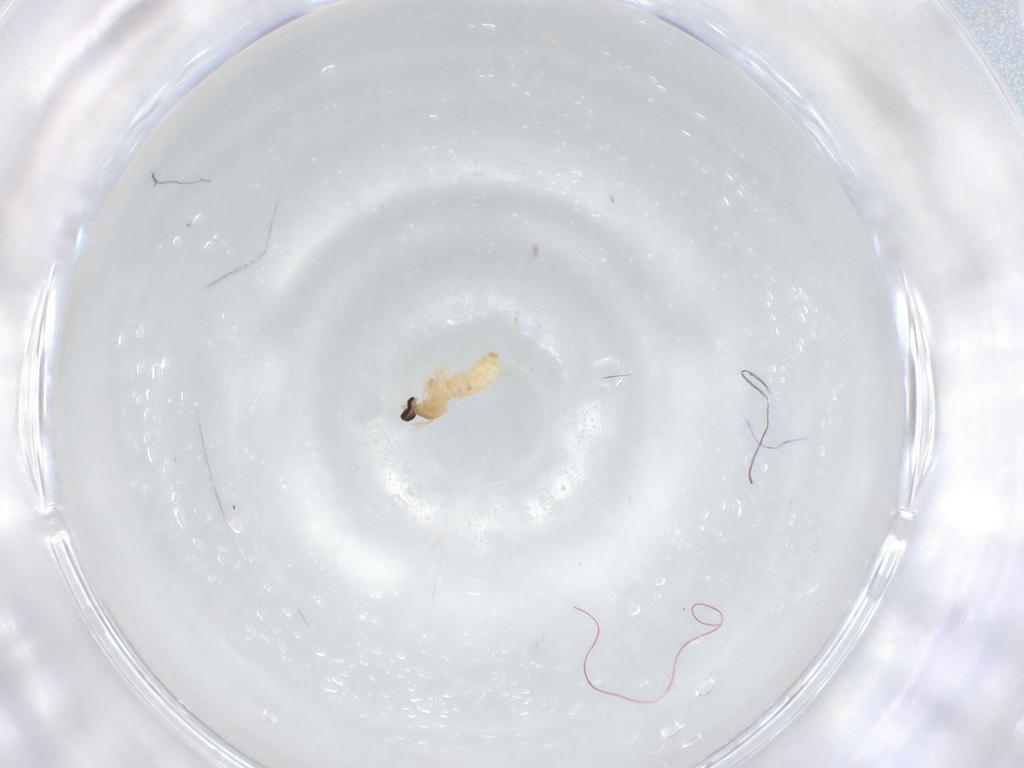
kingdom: Animalia
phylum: Arthropoda
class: Insecta
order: Diptera
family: Cecidomyiidae
